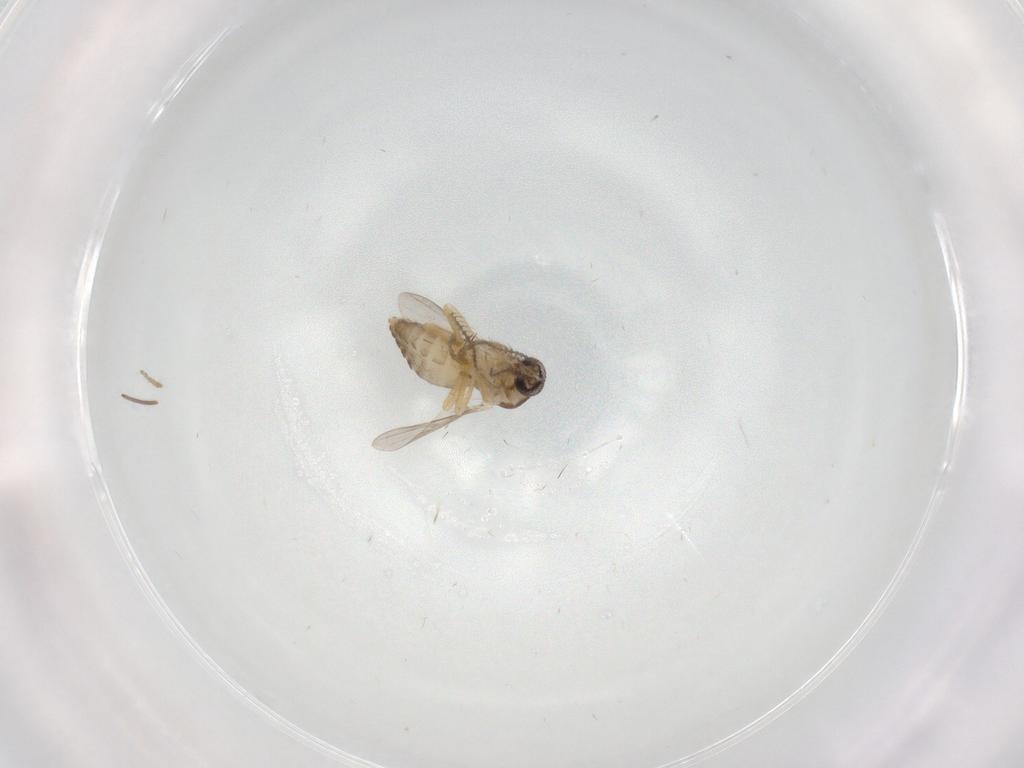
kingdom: Animalia
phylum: Arthropoda
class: Insecta
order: Diptera
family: Ceratopogonidae
